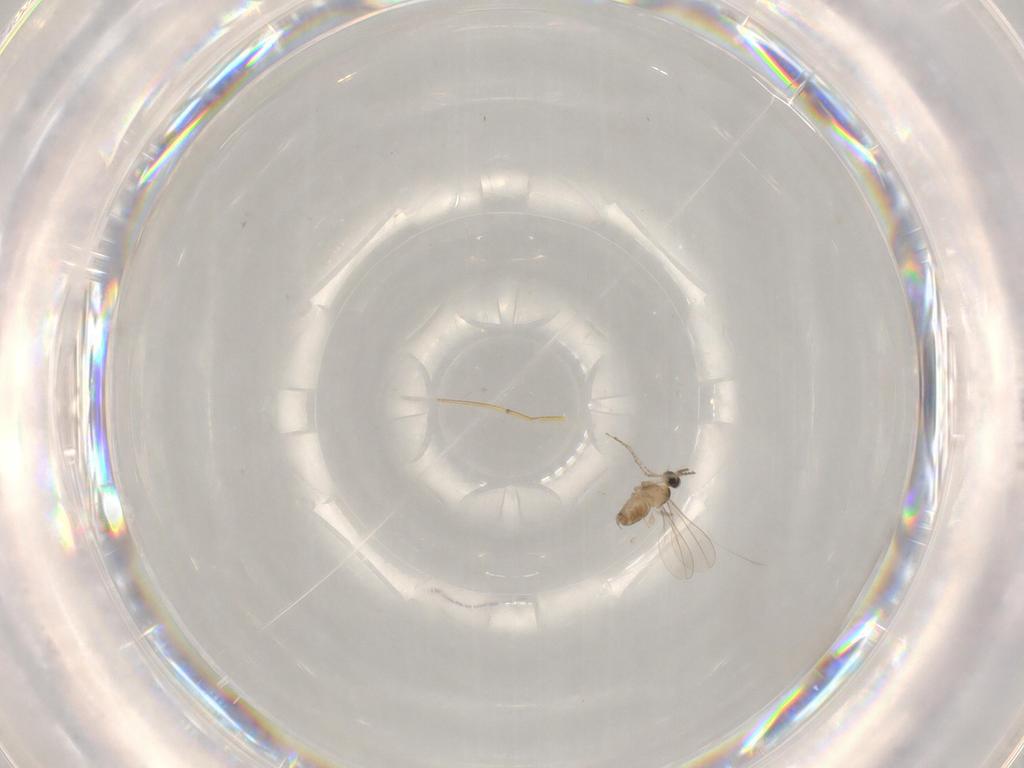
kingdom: Animalia
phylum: Arthropoda
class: Insecta
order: Diptera
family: Cecidomyiidae
